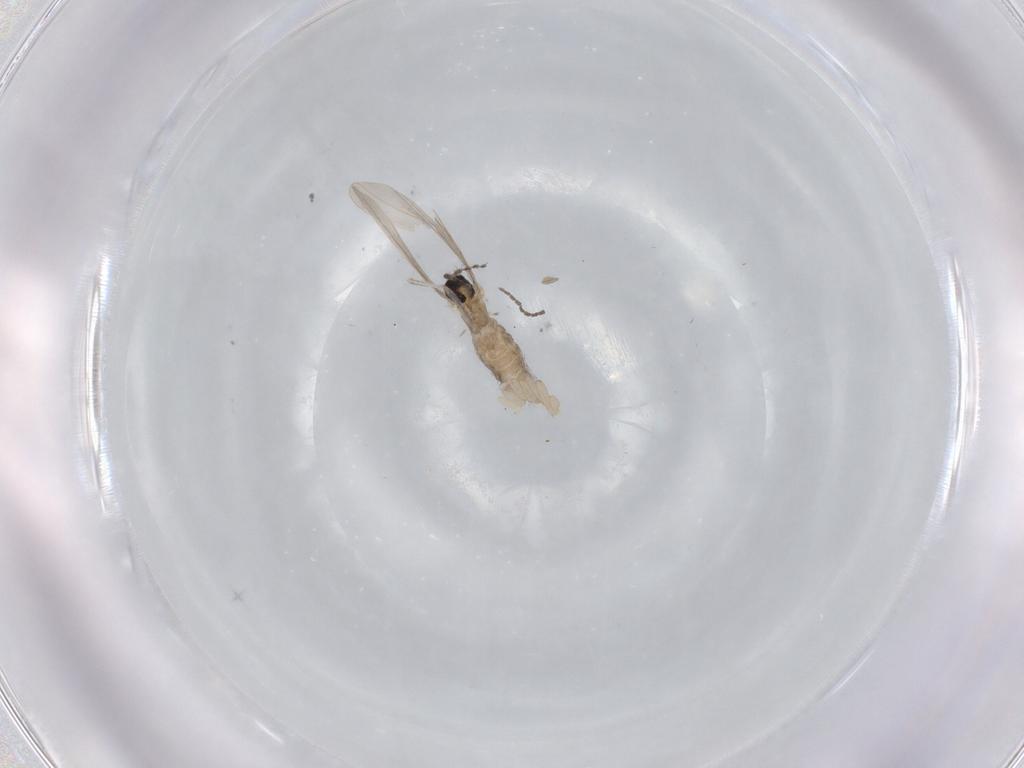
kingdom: Animalia
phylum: Arthropoda
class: Insecta
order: Diptera
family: Cecidomyiidae
